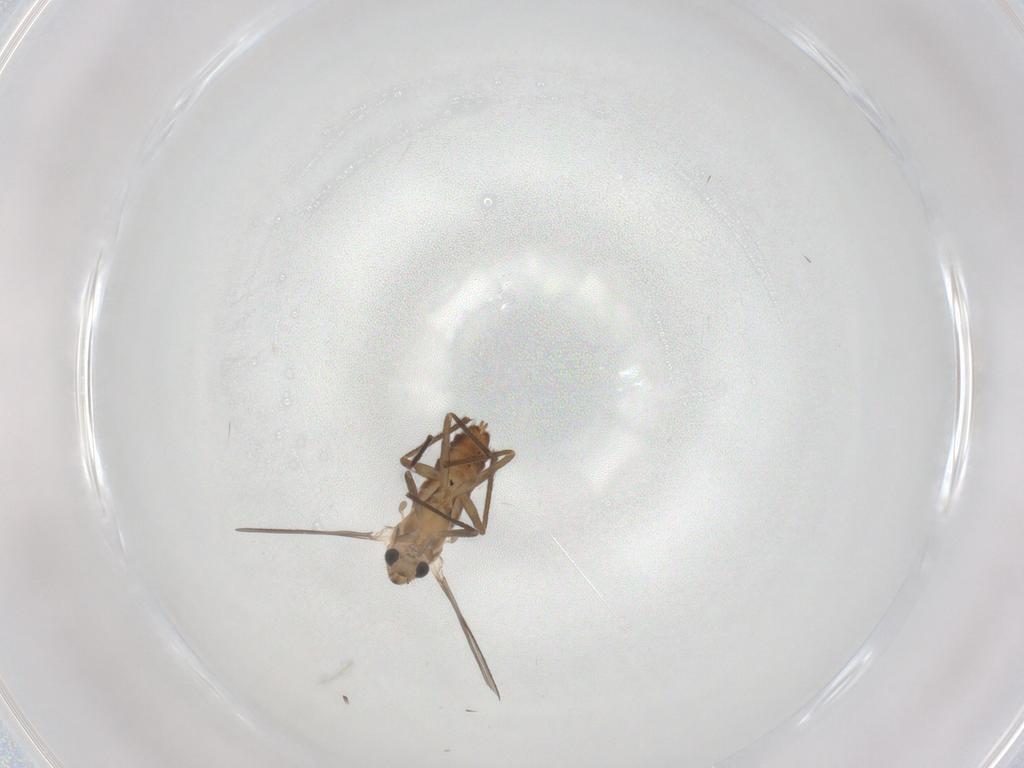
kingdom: Animalia
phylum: Arthropoda
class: Insecta
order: Diptera
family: Chironomidae
